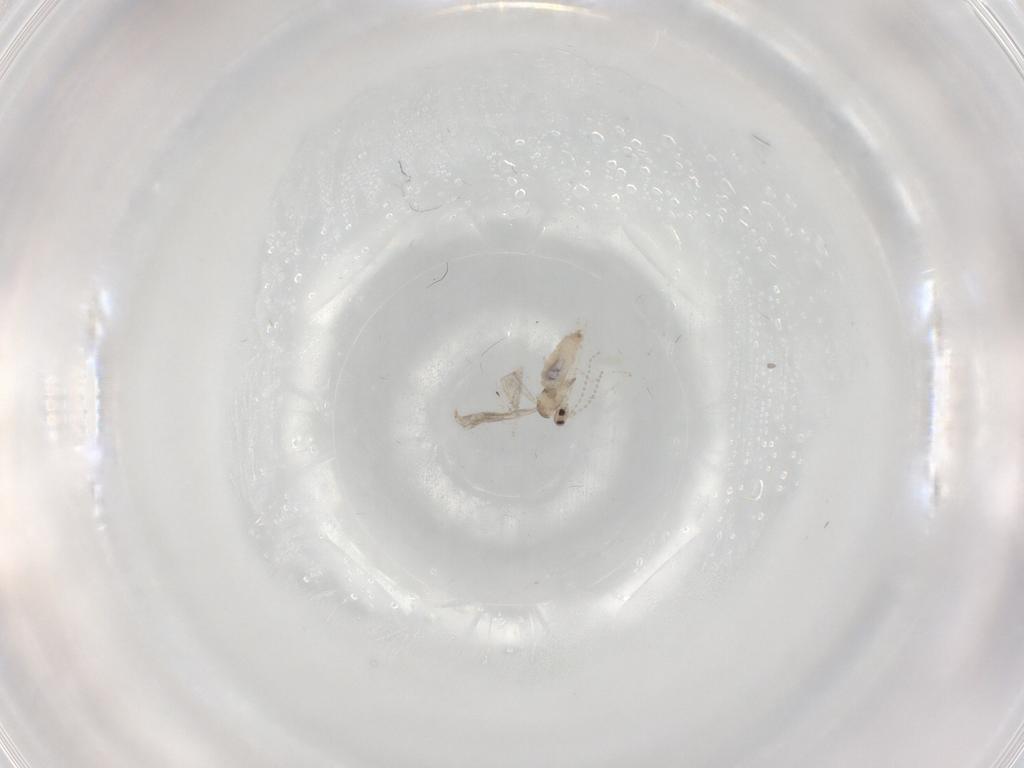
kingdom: Animalia
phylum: Arthropoda
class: Insecta
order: Diptera
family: Cecidomyiidae
